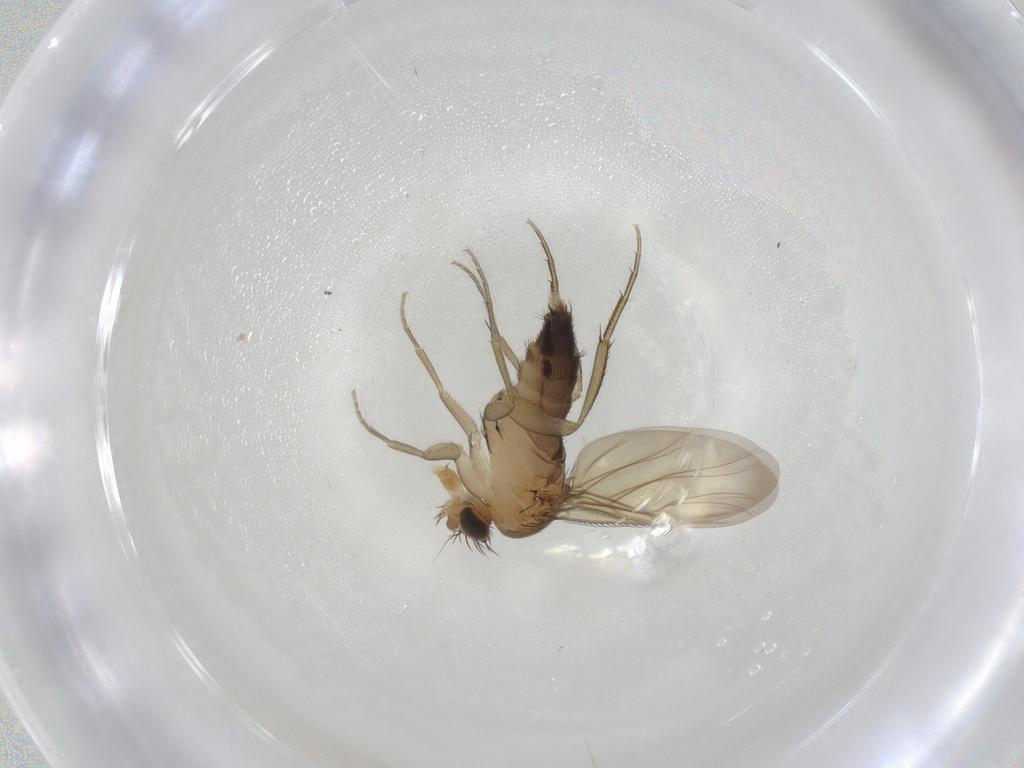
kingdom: Animalia
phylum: Arthropoda
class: Insecta
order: Diptera
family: Phoridae
